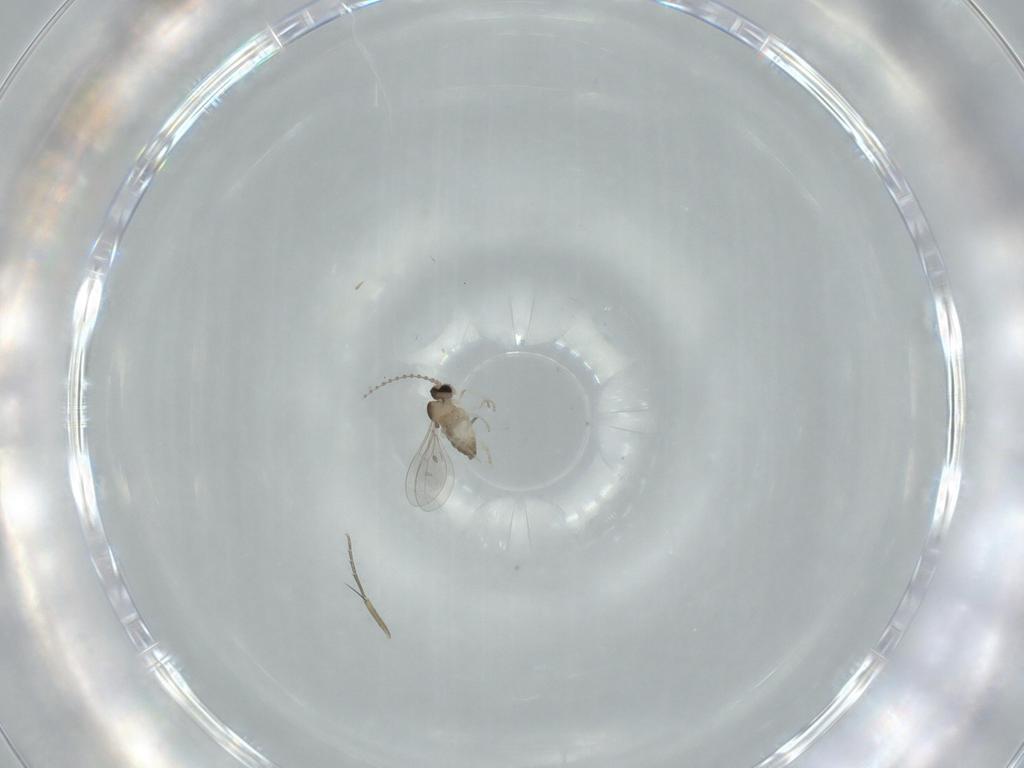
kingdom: Animalia
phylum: Arthropoda
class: Insecta
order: Diptera
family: Cecidomyiidae
